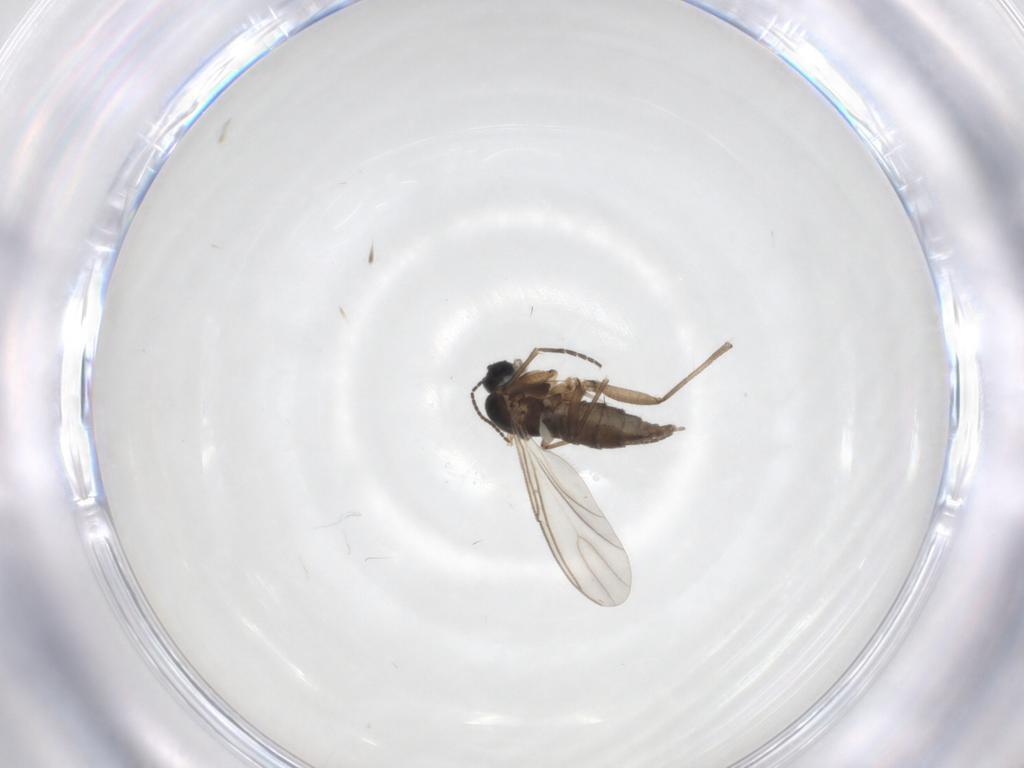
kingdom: Animalia
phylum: Arthropoda
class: Insecta
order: Diptera
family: Chironomidae
